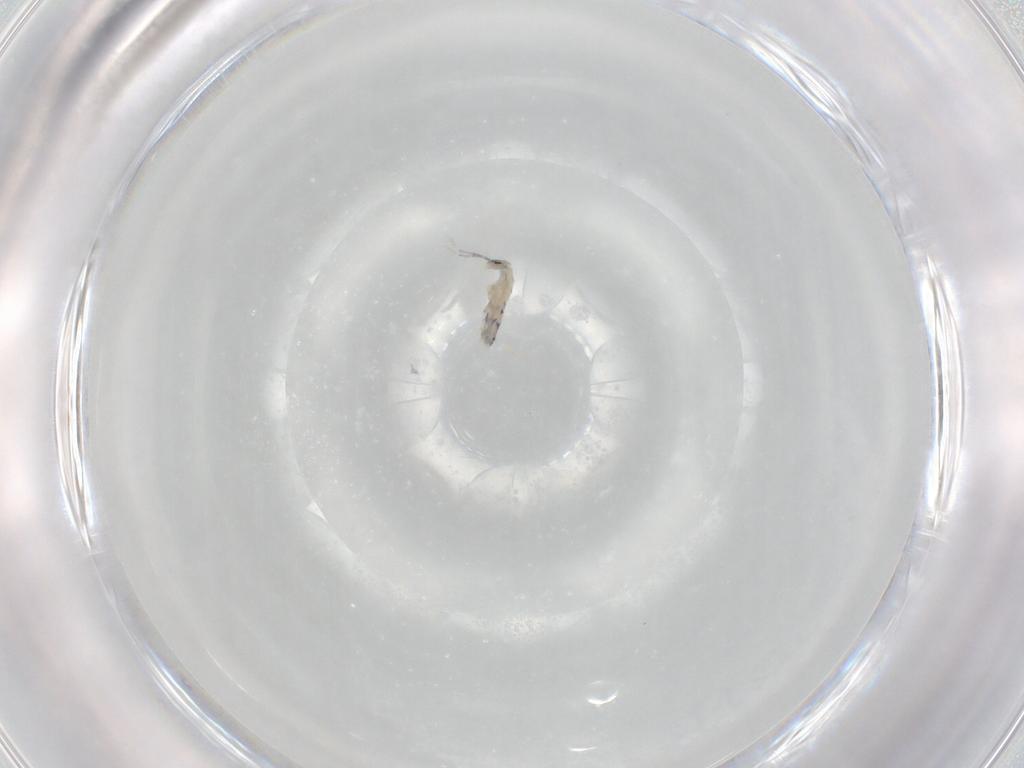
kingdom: Animalia
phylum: Arthropoda
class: Collembola
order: Entomobryomorpha
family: Entomobryidae
